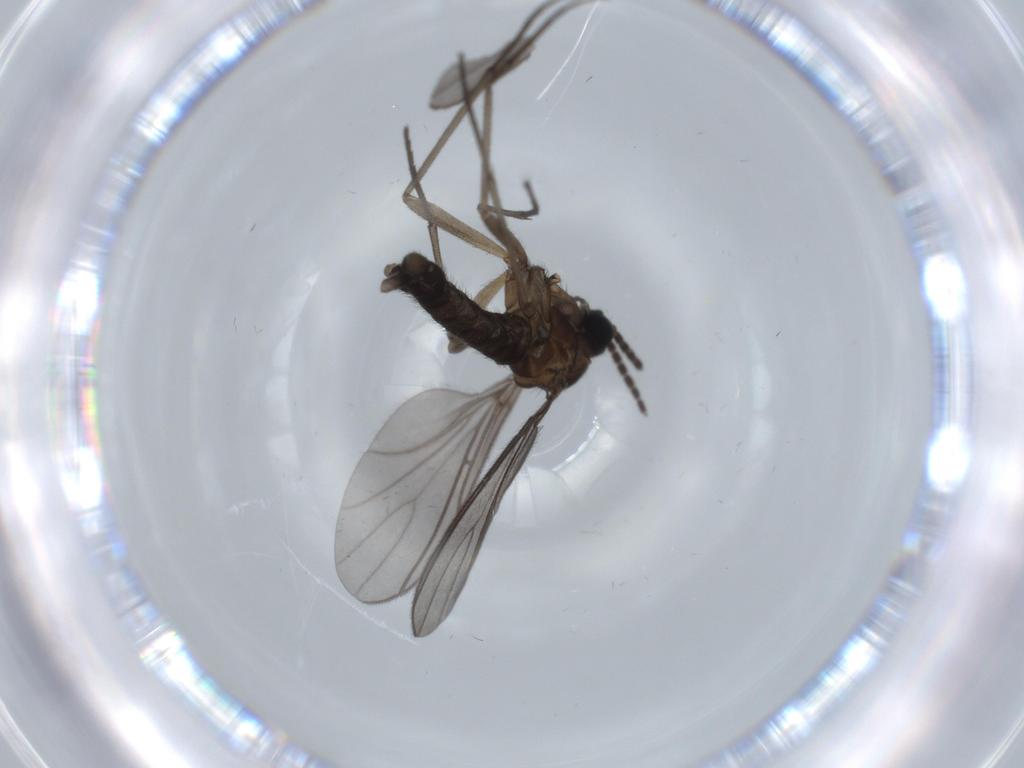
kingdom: Animalia
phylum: Arthropoda
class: Insecta
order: Diptera
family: Sciaridae
